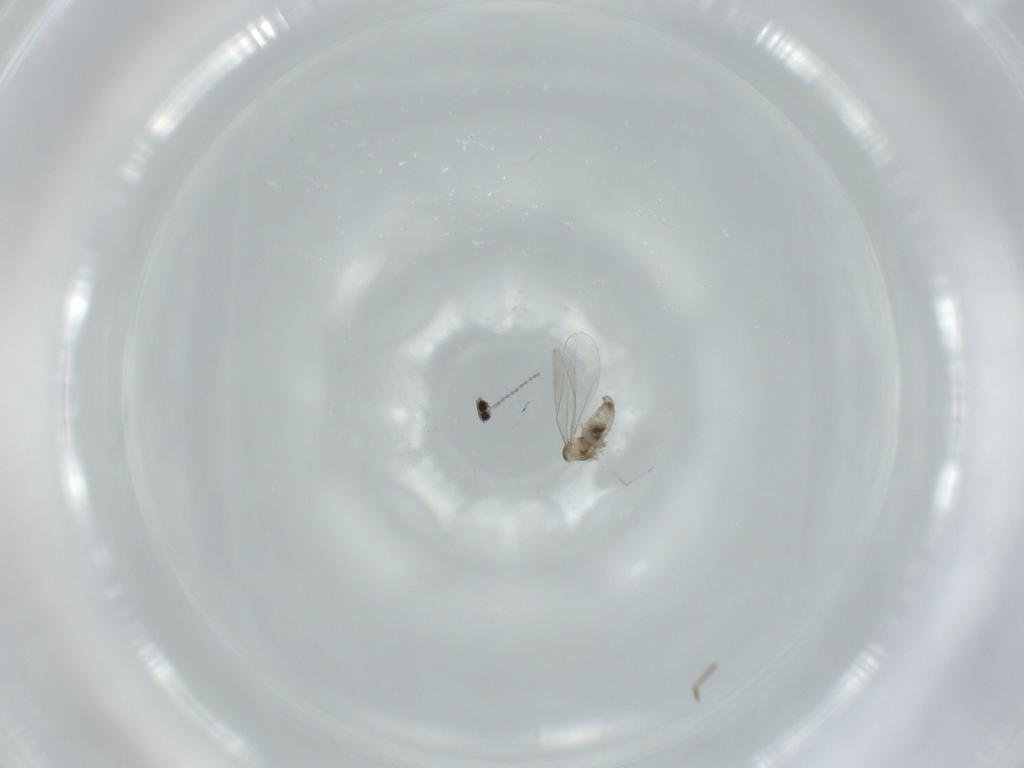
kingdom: Animalia
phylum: Arthropoda
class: Insecta
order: Diptera
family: Cecidomyiidae
